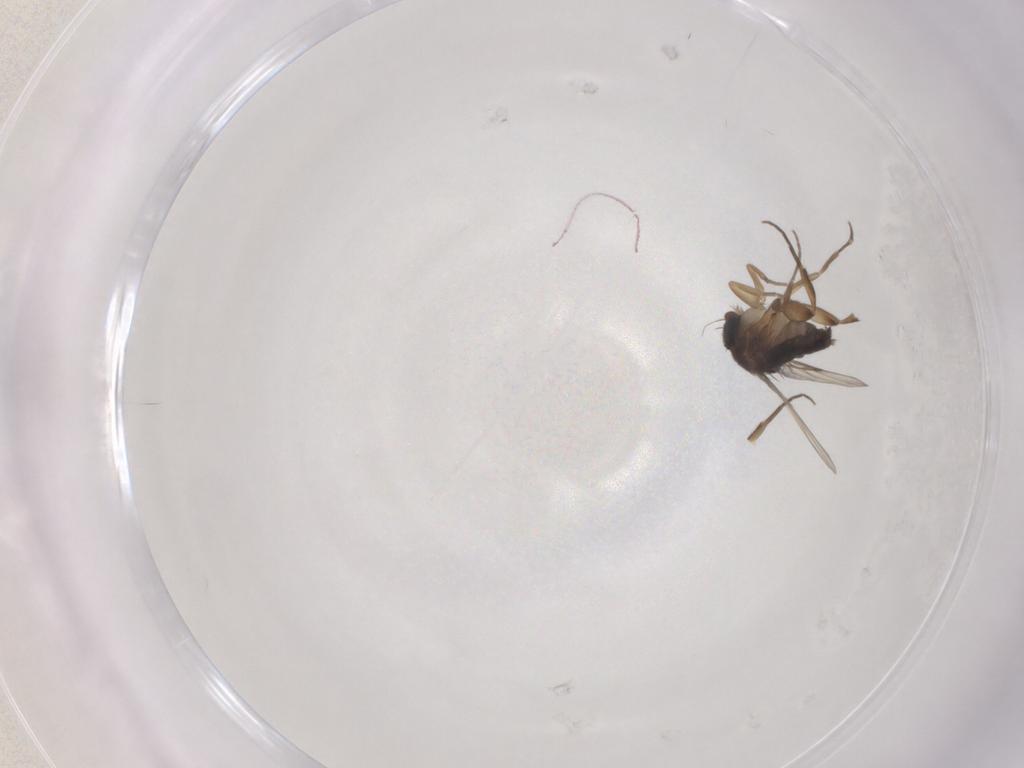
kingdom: Animalia
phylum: Arthropoda
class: Insecta
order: Diptera
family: Phoridae
